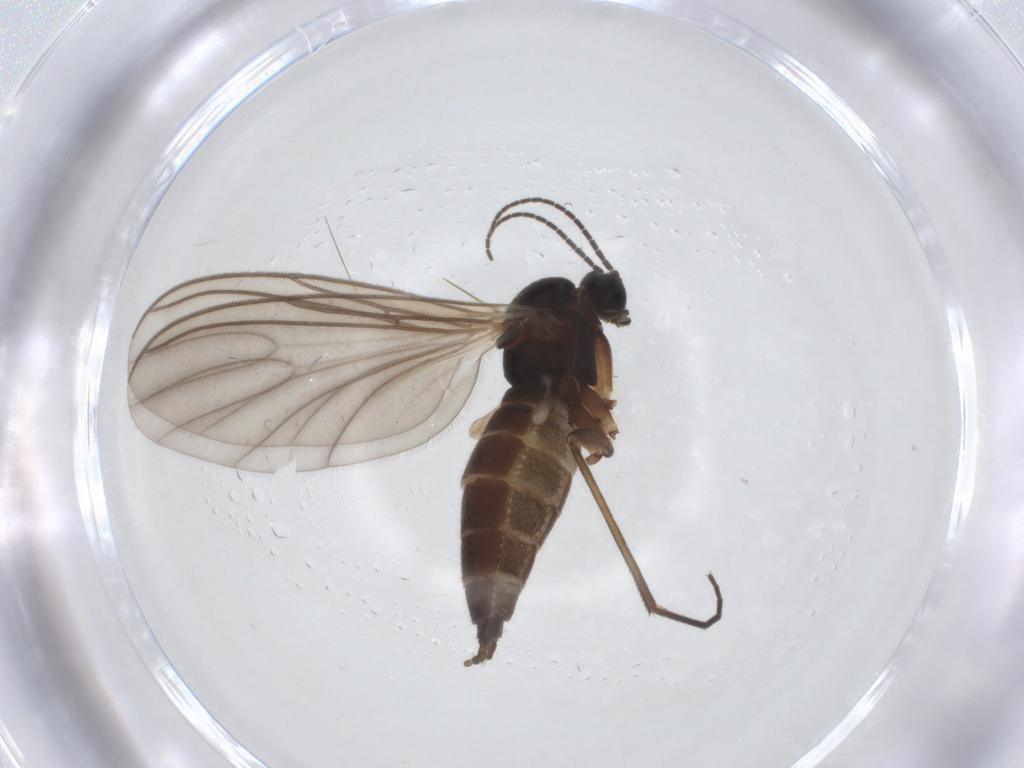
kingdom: Animalia
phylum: Arthropoda
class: Insecta
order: Diptera
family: Sciaridae
